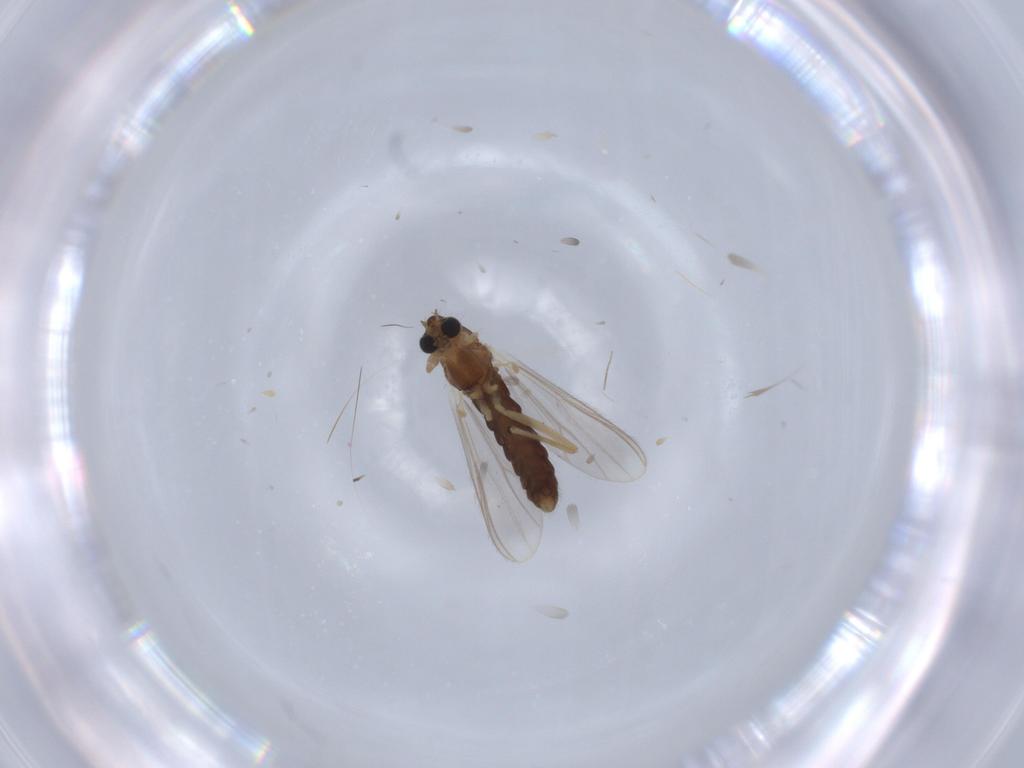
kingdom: Animalia
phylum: Arthropoda
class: Insecta
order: Diptera
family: Chironomidae
